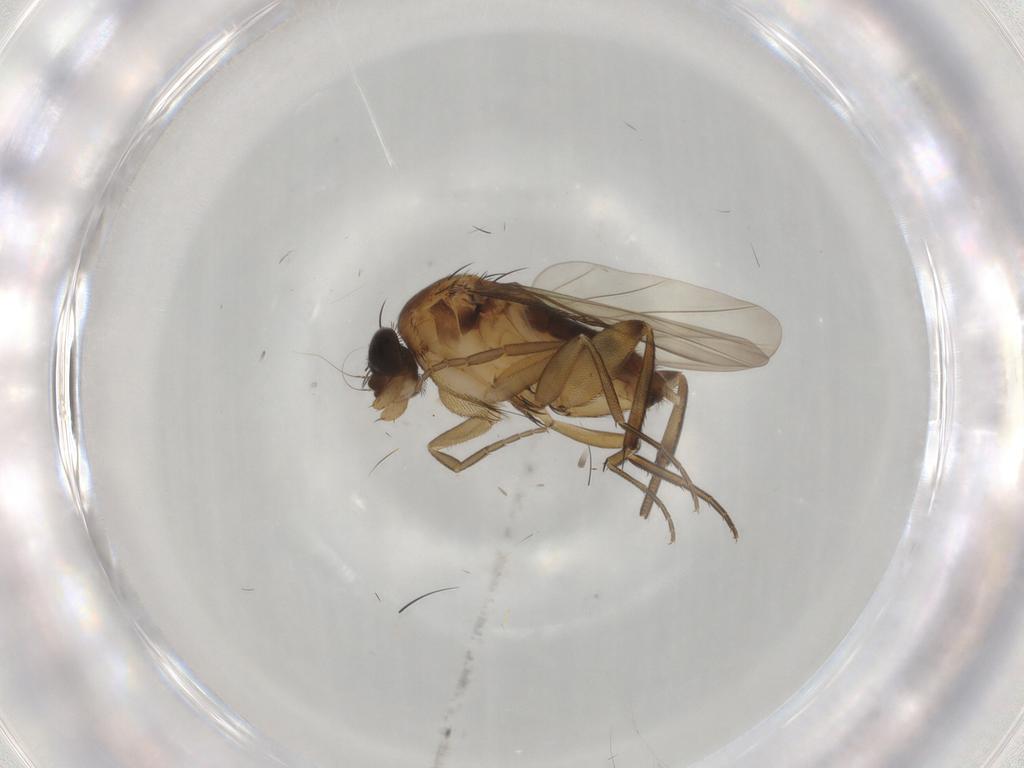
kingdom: Animalia
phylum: Arthropoda
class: Insecta
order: Diptera
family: Phoridae
